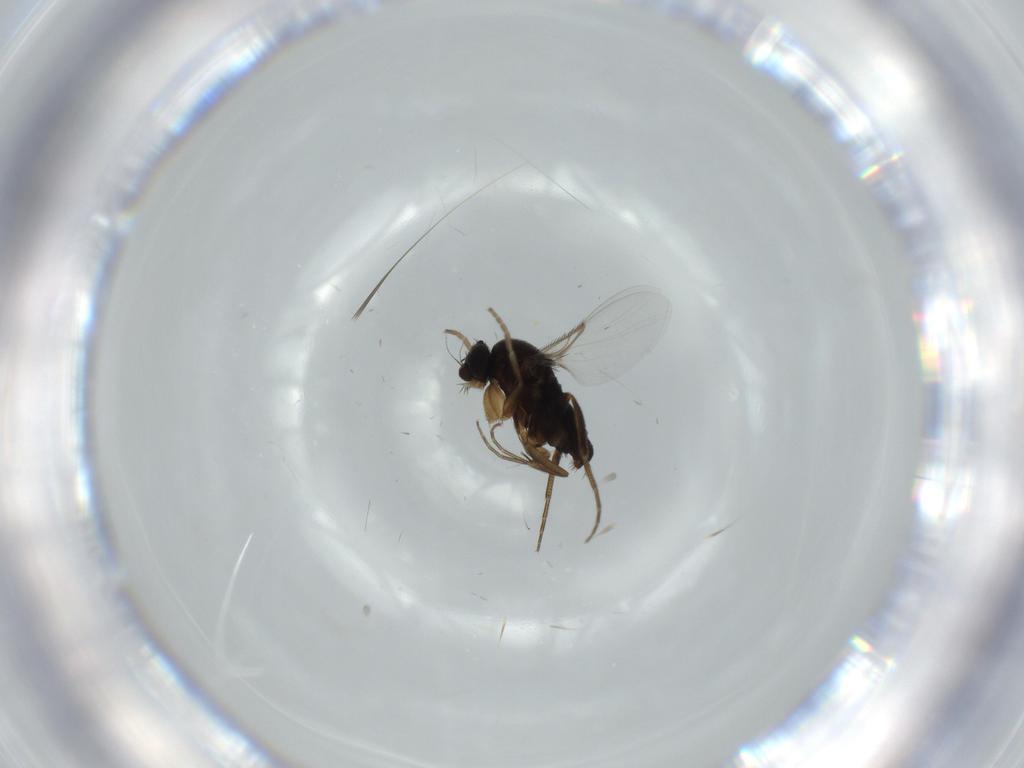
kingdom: Animalia
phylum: Arthropoda
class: Insecta
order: Diptera
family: Phoridae
